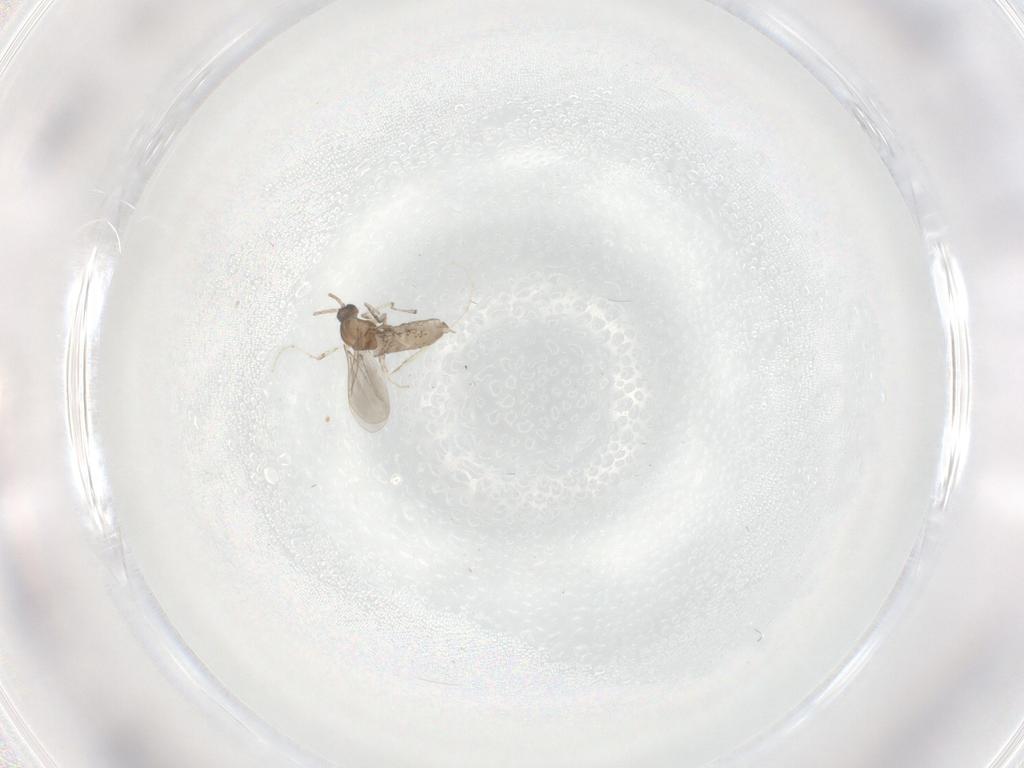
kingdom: Animalia
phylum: Arthropoda
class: Insecta
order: Diptera
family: Cecidomyiidae
